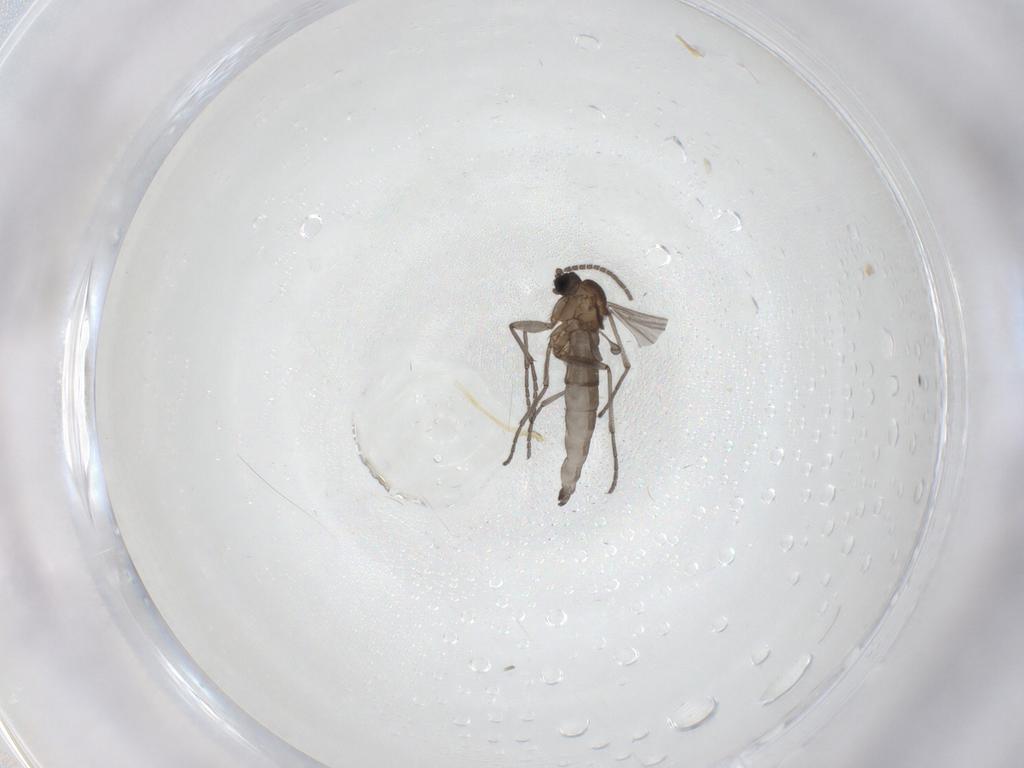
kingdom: Animalia
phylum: Arthropoda
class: Insecta
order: Diptera
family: Sciaridae
